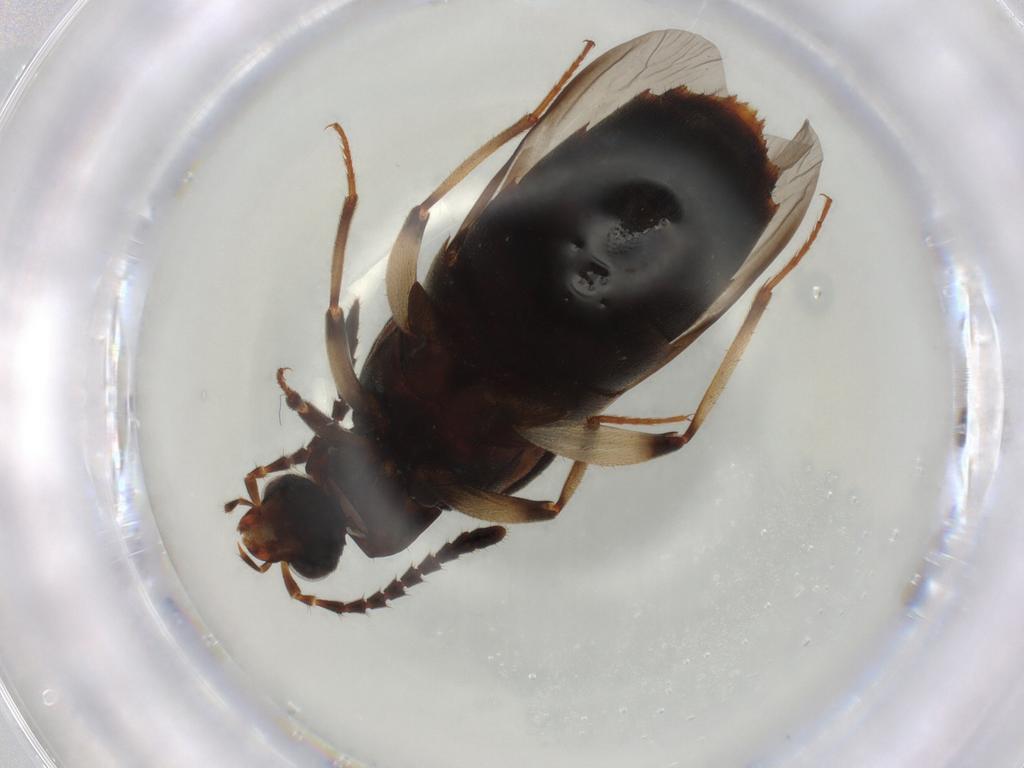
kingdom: Animalia
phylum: Arthropoda
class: Insecta
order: Coleoptera
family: Staphylinidae
